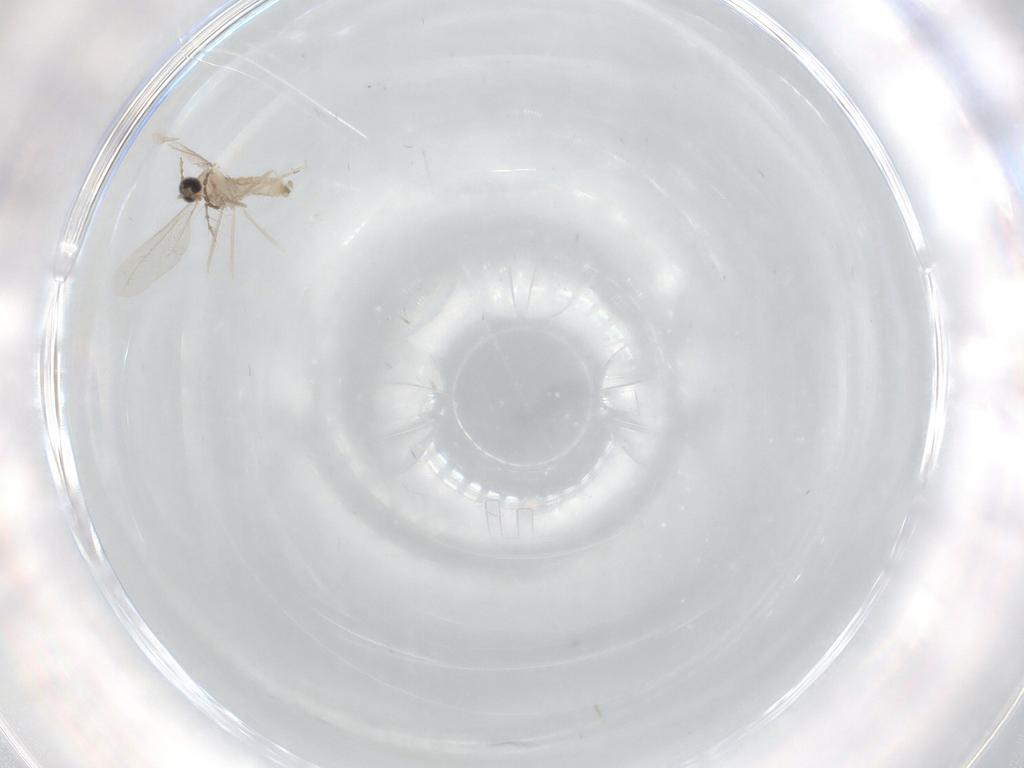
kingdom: Animalia
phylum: Arthropoda
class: Insecta
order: Diptera
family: Cecidomyiidae
